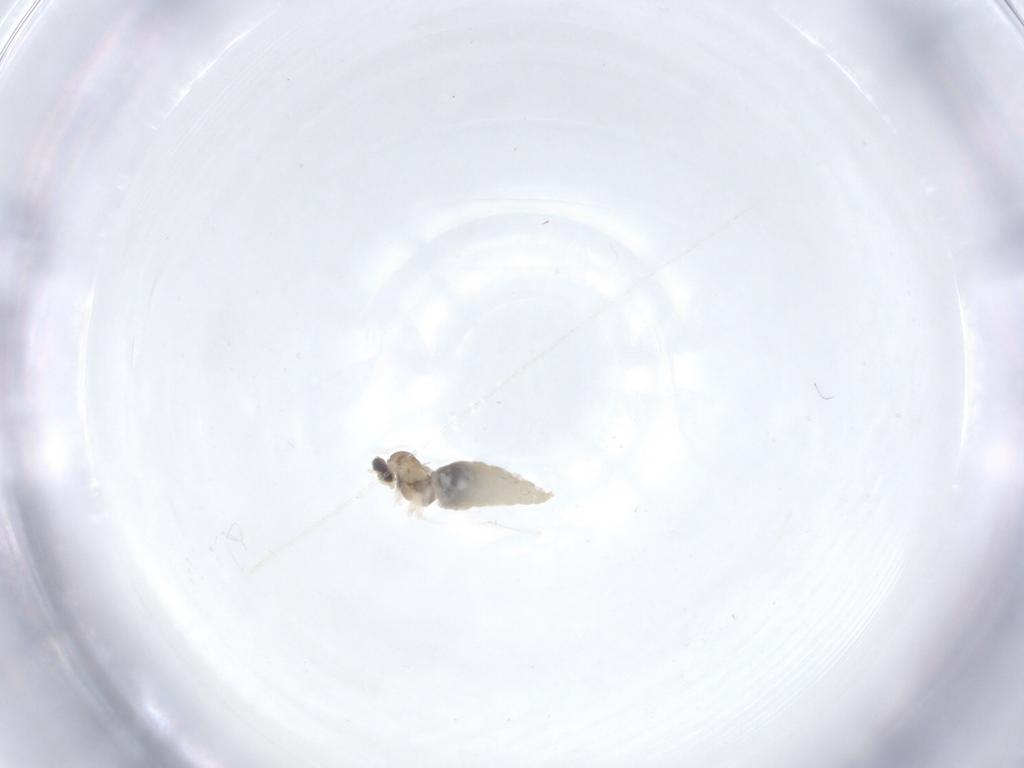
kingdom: Animalia
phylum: Arthropoda
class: Insecta
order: Diptera
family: Cecidomyiidae
